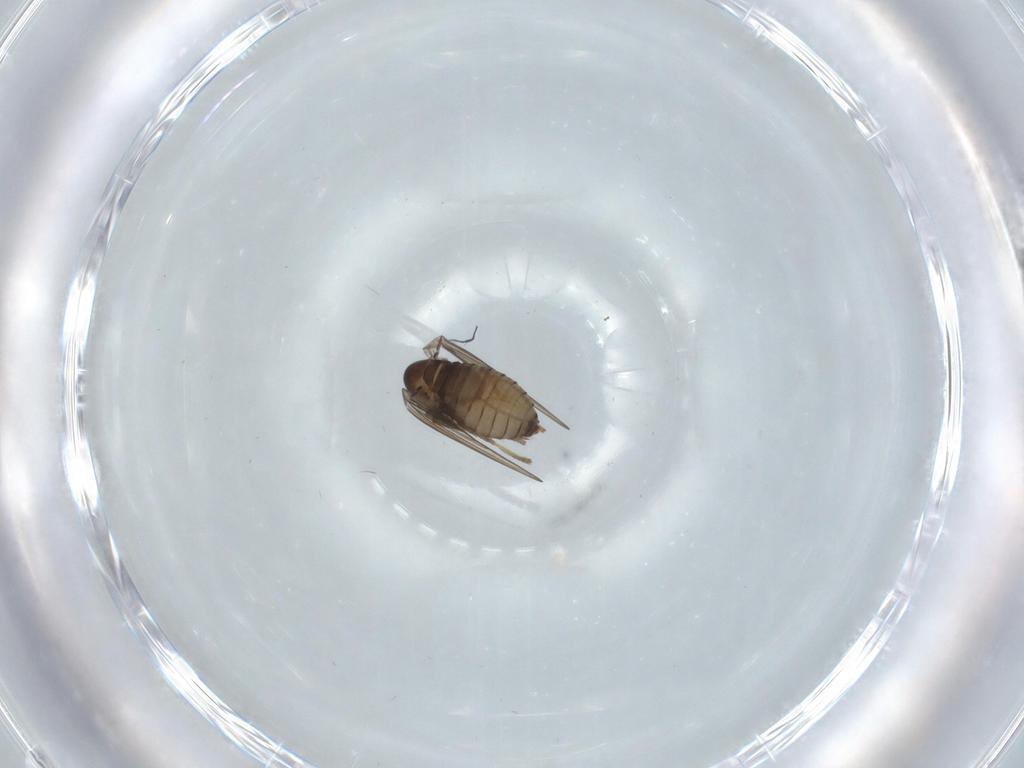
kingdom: Animalia
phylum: Arthropoda
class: Insecta
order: Diptera
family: Psychodidae
